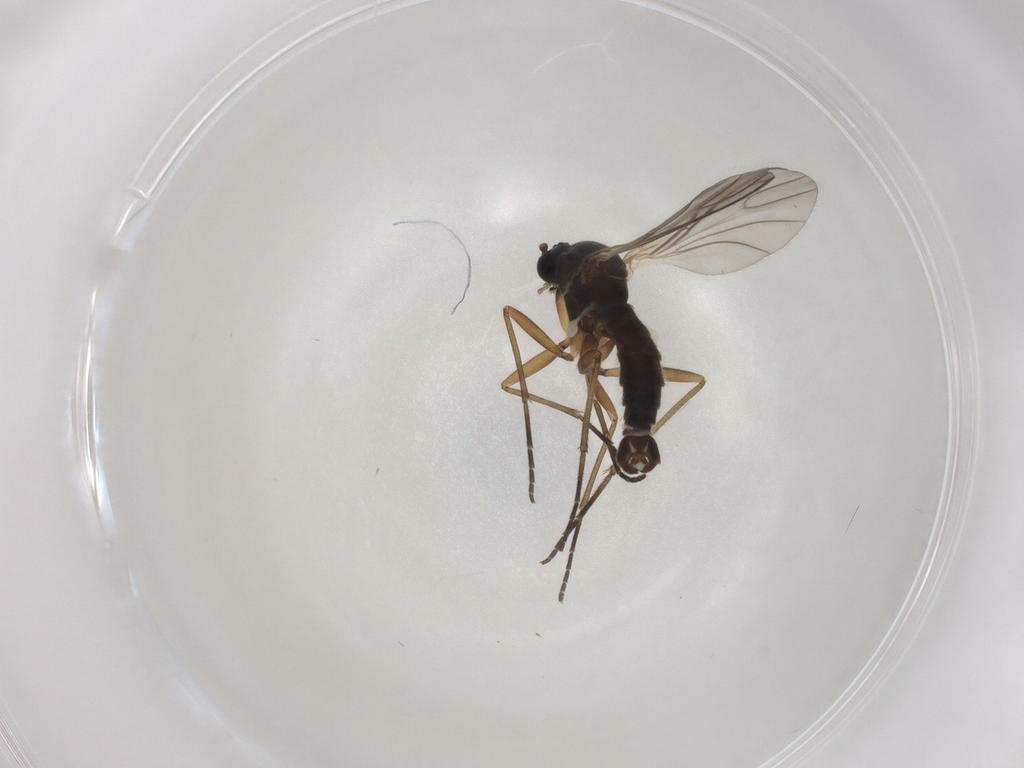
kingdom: Animalia
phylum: Arthropoda
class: Insecta
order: Diptera
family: Sciaridae
